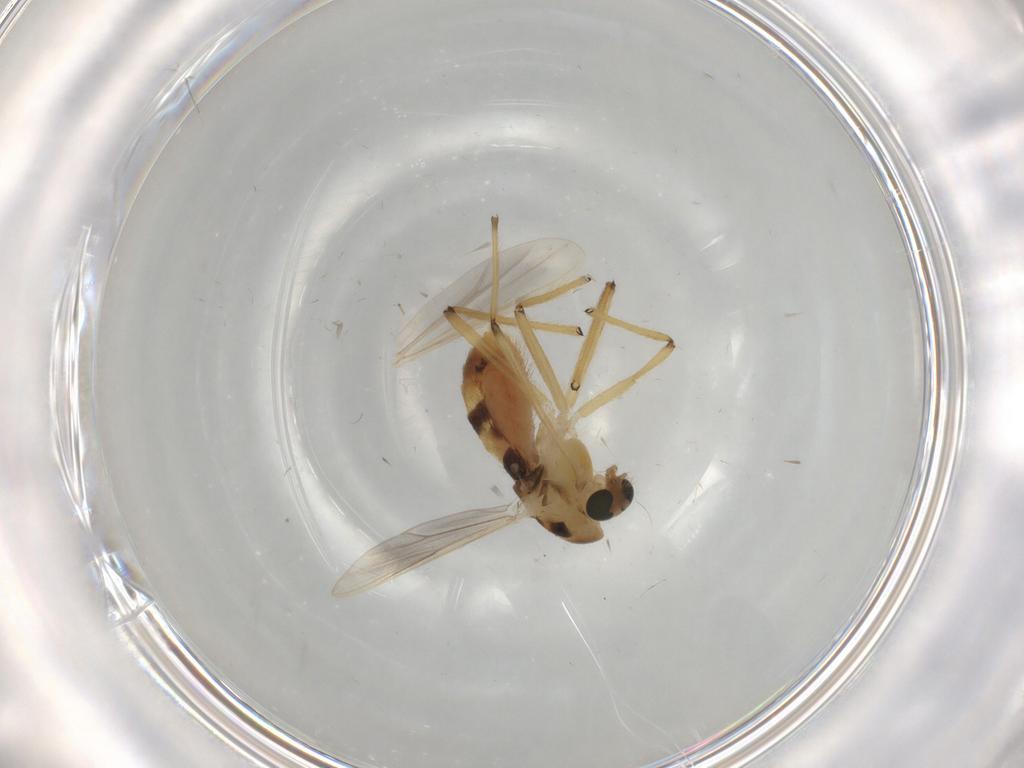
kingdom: Animalia
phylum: Arthropoda
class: Insecta
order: Diptera
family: Chironomidae
